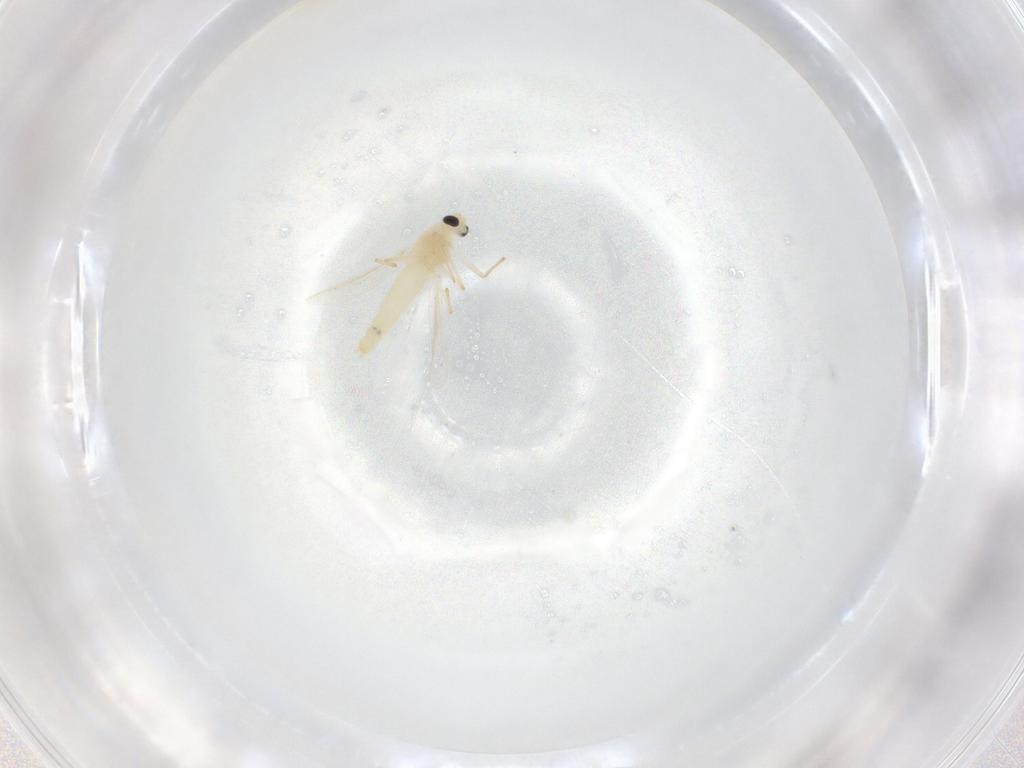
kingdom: Animalia
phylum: Arthropoda
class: Insecta
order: Diptera
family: Chironomidae
